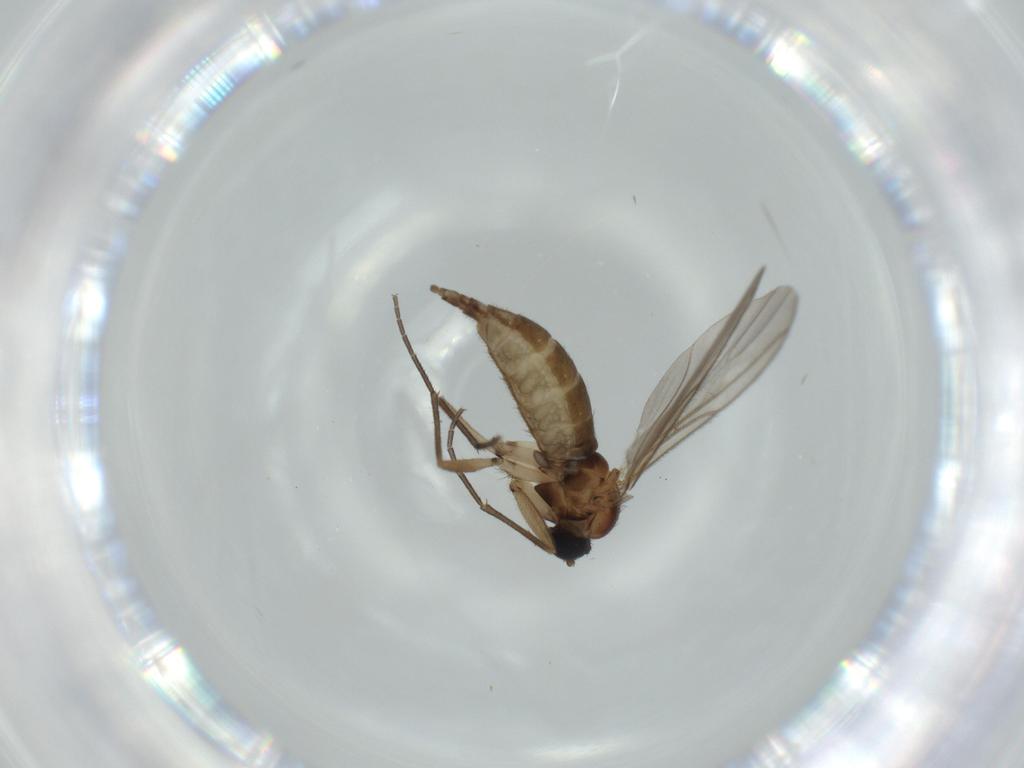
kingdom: Animalia
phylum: Arthropoda
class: Insecta
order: Diptera
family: Sciaridae
